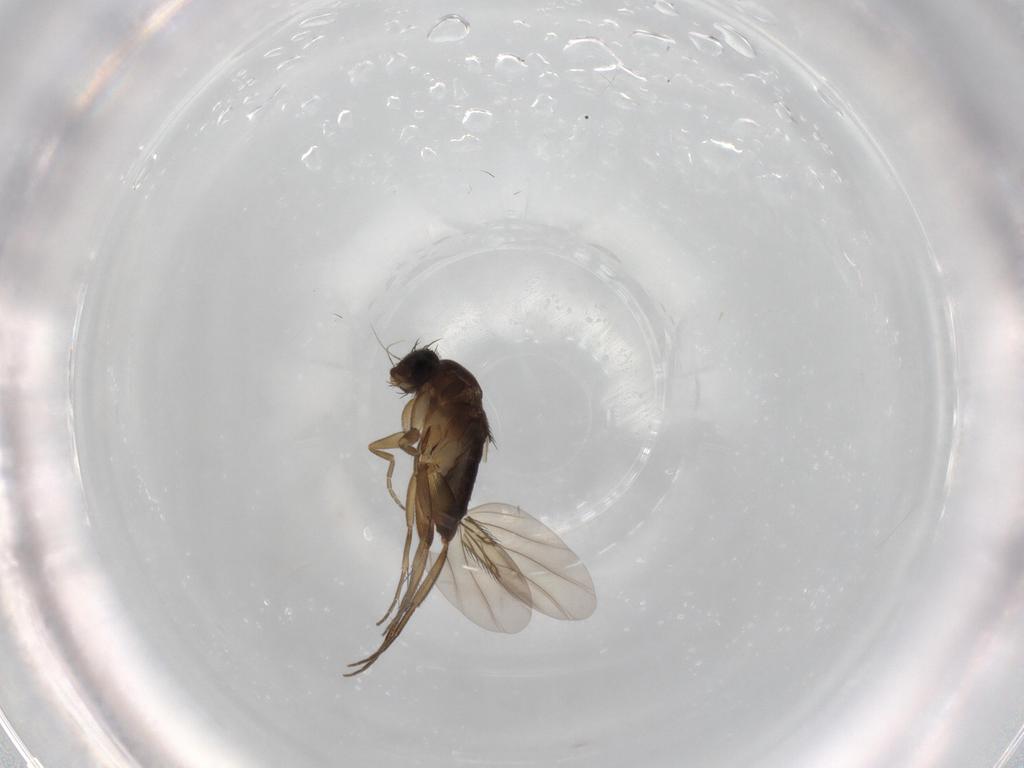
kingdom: Animalia
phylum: Arthropoda
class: Insecta
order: Diptera
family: Phoridae
